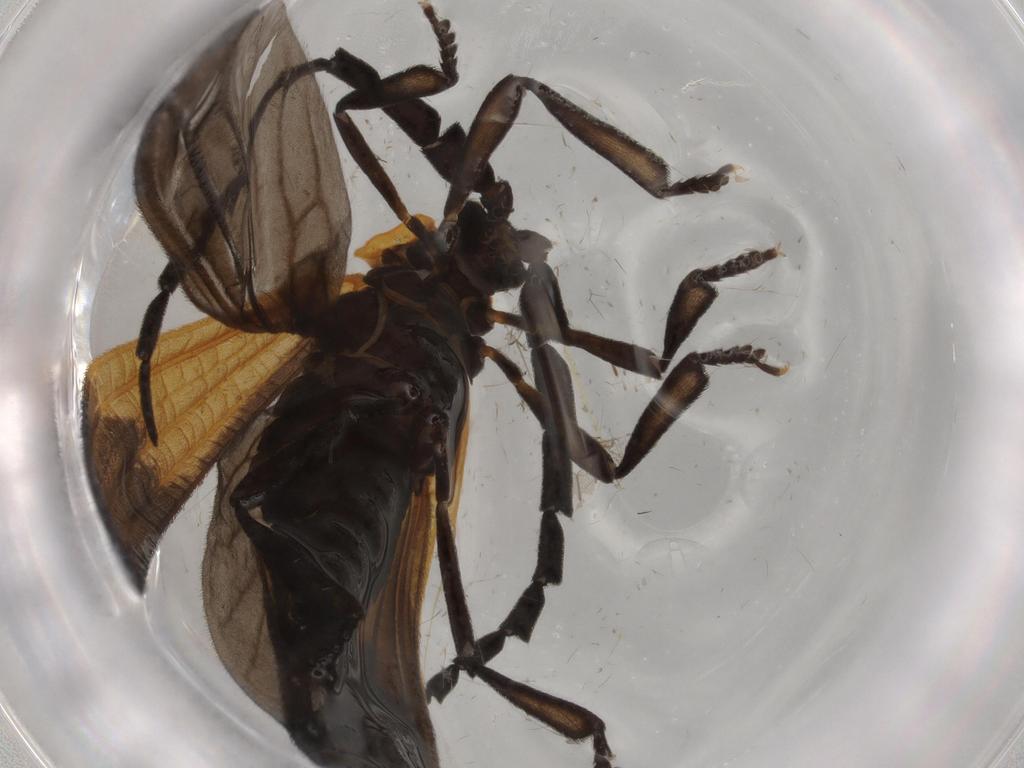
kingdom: Animalia
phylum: Arthropoda
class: Insecta
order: Coleoptera
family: Lycidae
